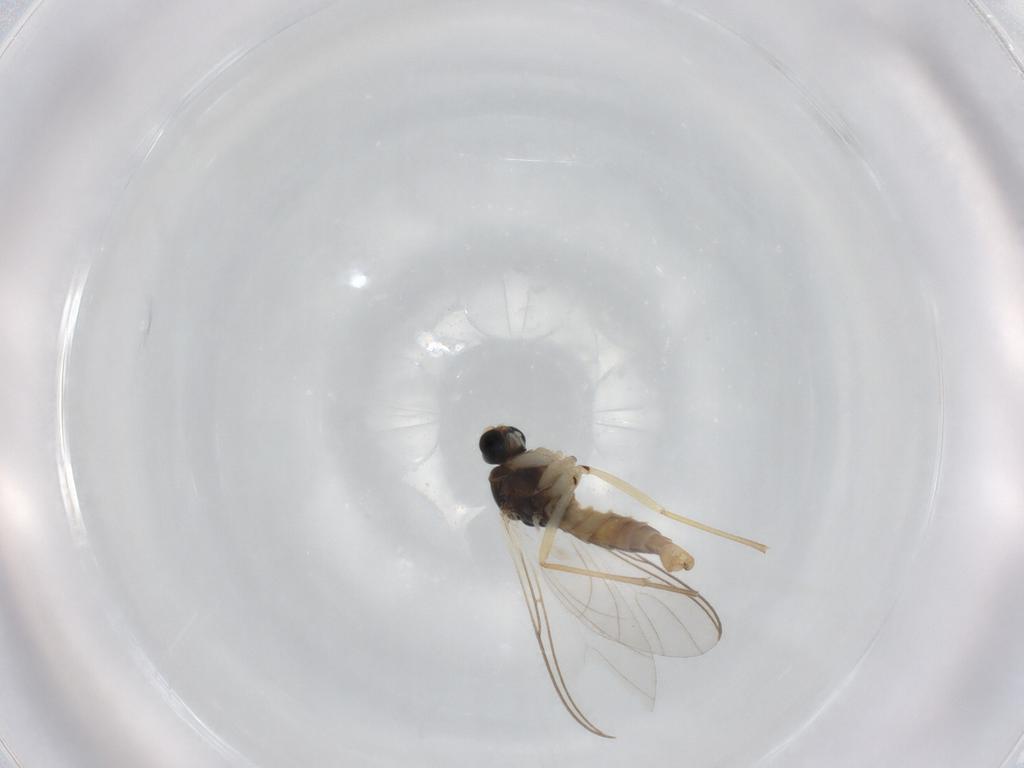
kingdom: Animalia
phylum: Arthropoda
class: Insecta
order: Diptera
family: Sciaridae
